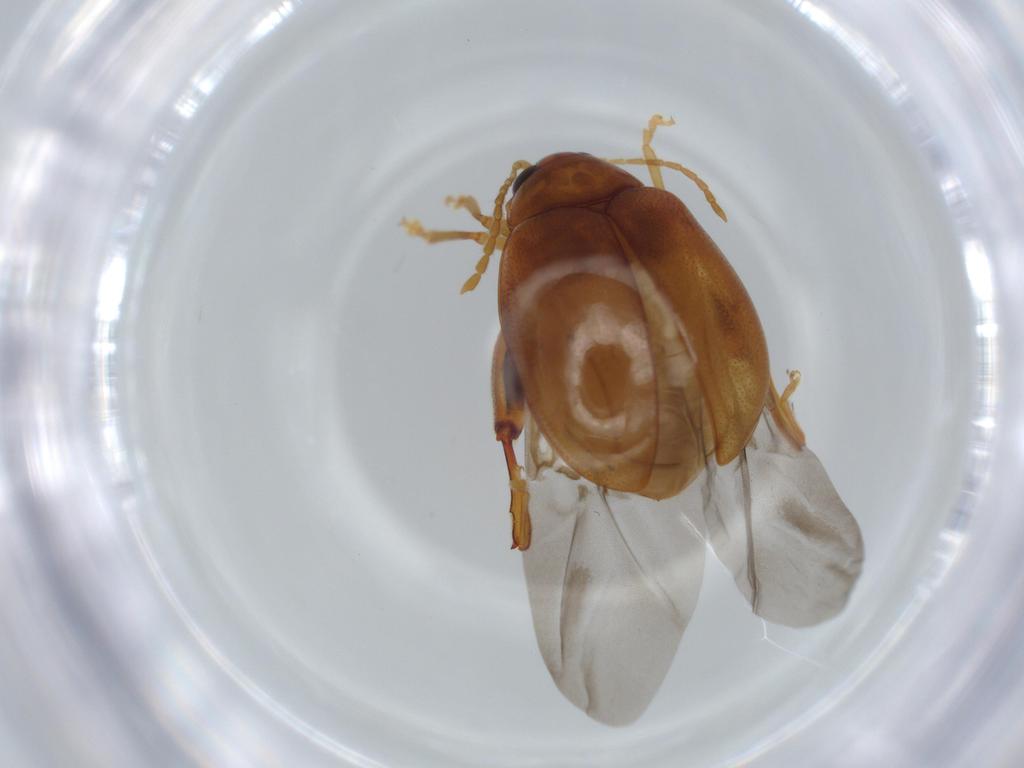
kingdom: Animalia
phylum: Arthropoda
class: Insecta
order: Coleoptera
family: Chrysomelidae
